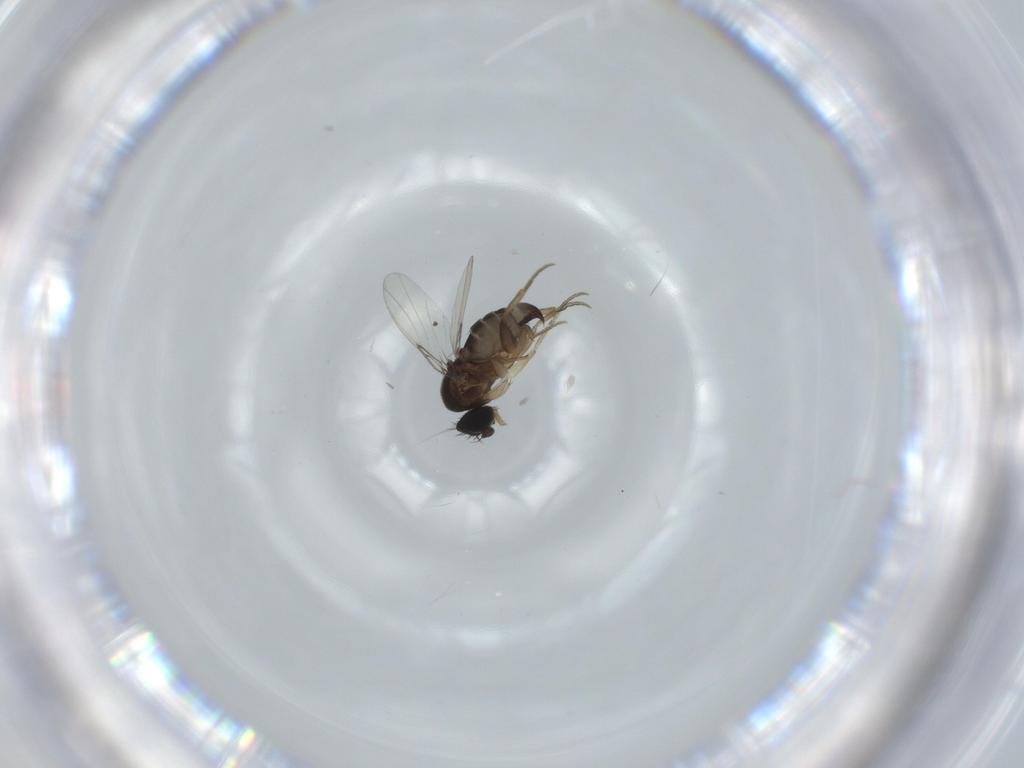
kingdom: Animalia
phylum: Arthropoda
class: Insecta
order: Diptera
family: Phoridae
